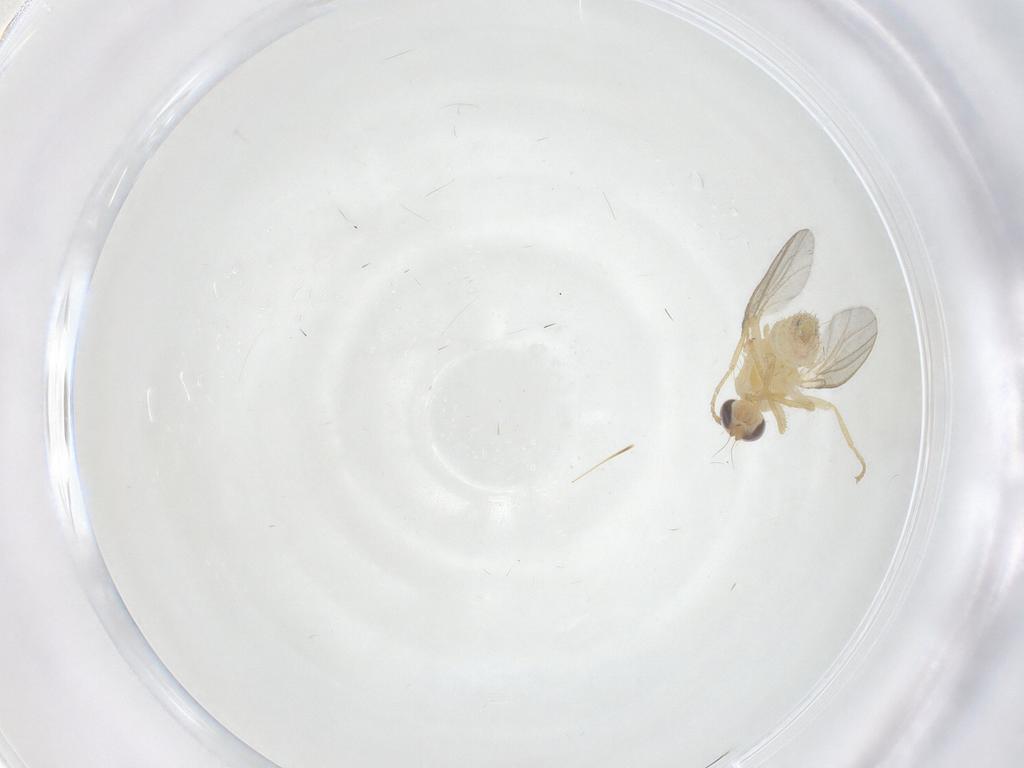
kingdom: Animalia
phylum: Arthropoda
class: Insecta
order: Diptera
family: Chyromyidae
